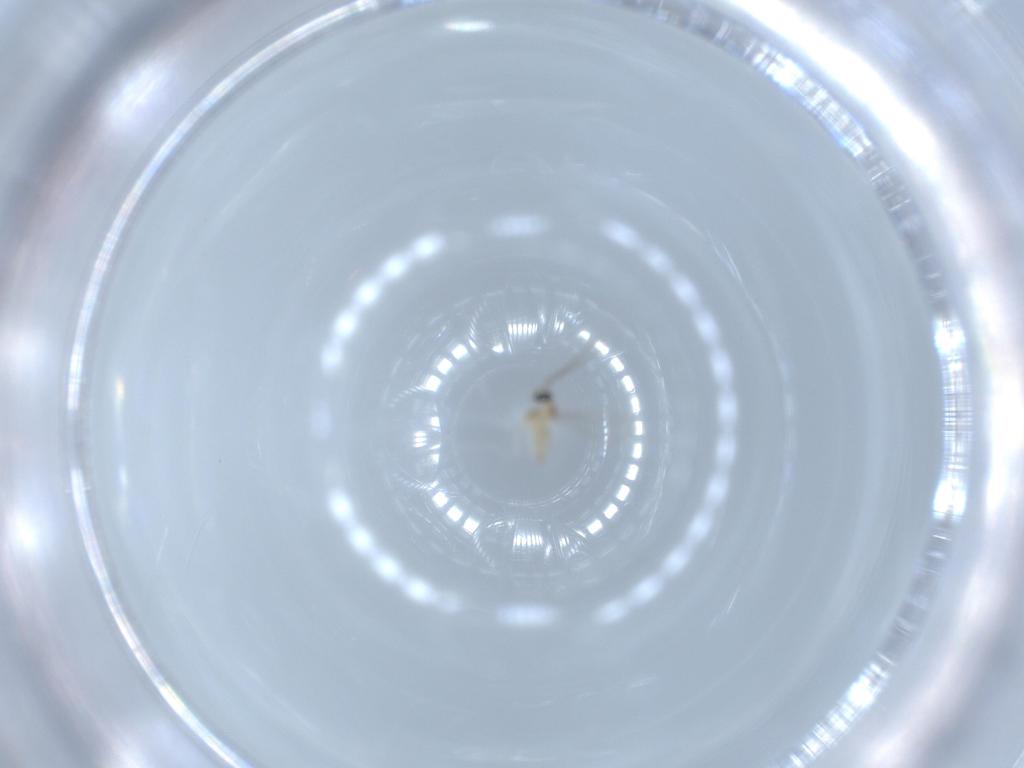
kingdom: Animalia
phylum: Arthropoda
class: Insecta
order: Diptera
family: Cecidomyiidae
